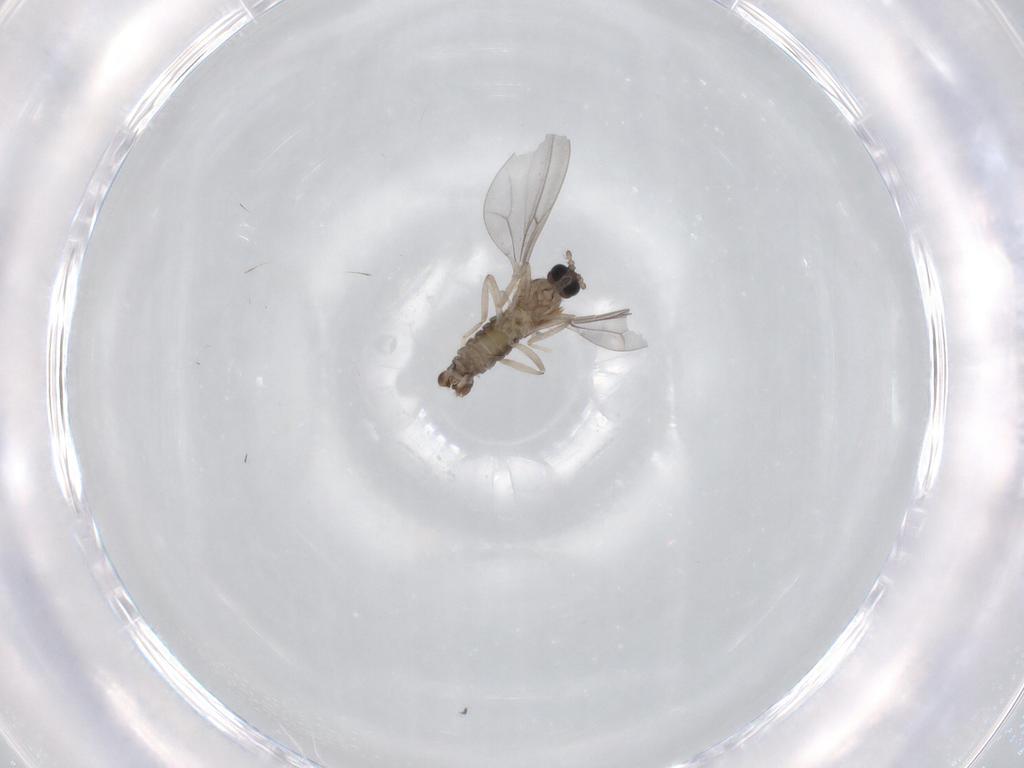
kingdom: Animalia
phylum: Arthropoda
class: Insecta
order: Diptera
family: Cecidomyiidae
